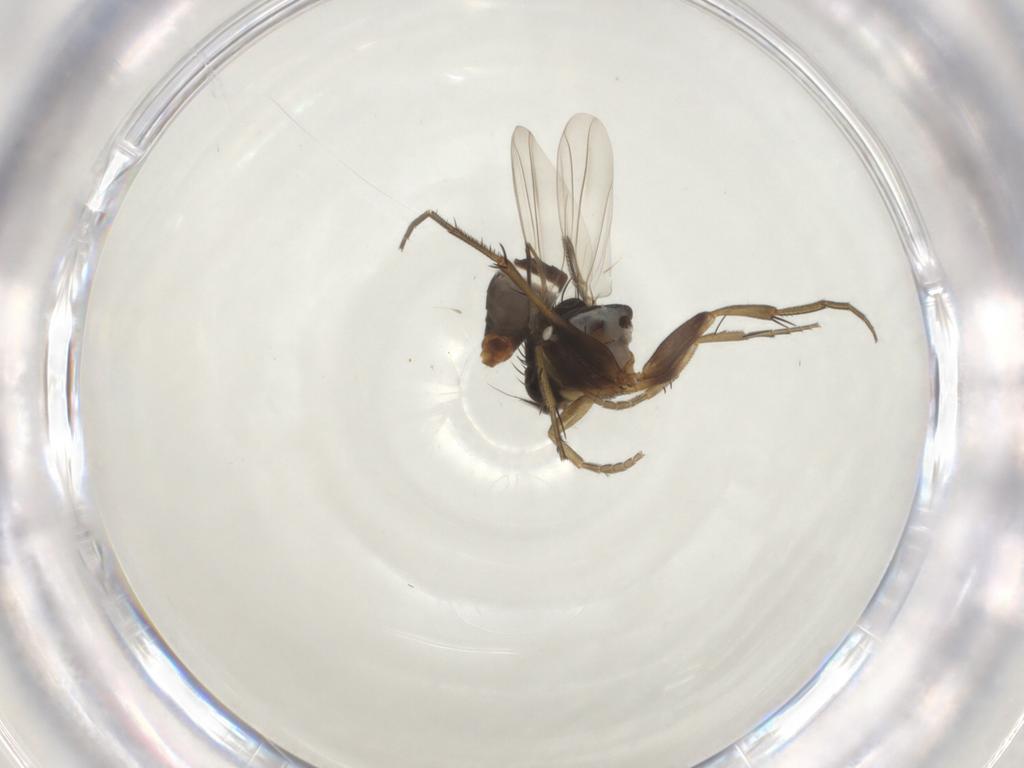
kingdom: Animalia
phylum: Arthropoda
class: Insecta
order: Diptera
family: Phoridae
